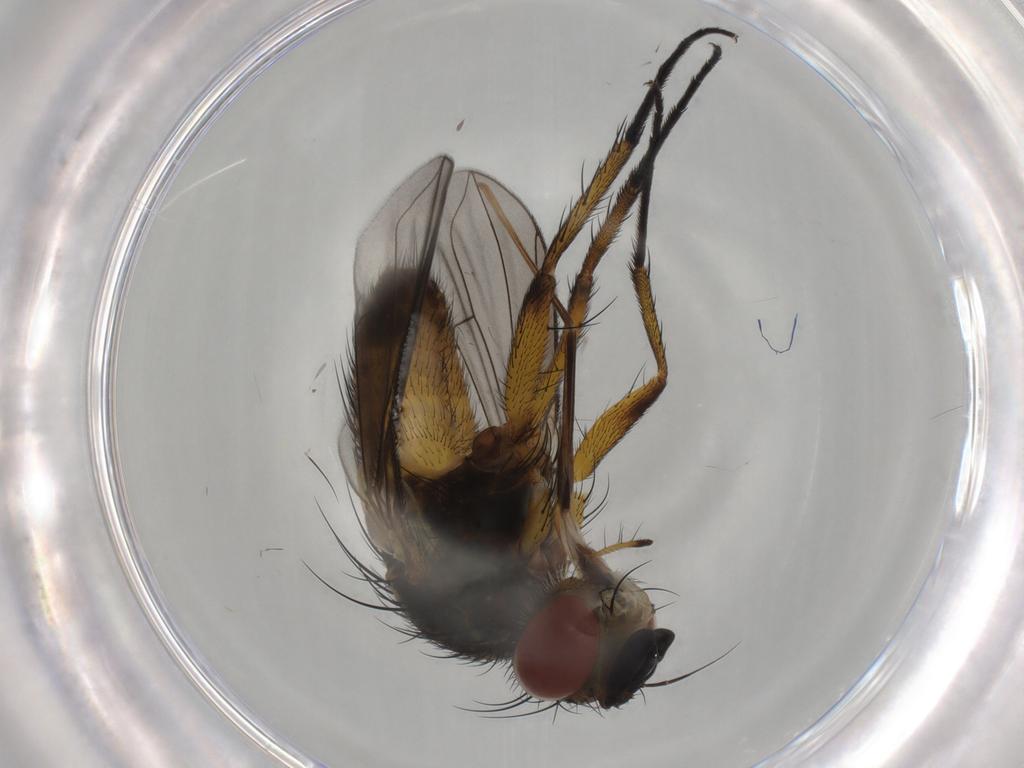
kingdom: Animalia
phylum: Arthropoda
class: Insecta
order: Diptera
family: Tachinidae
